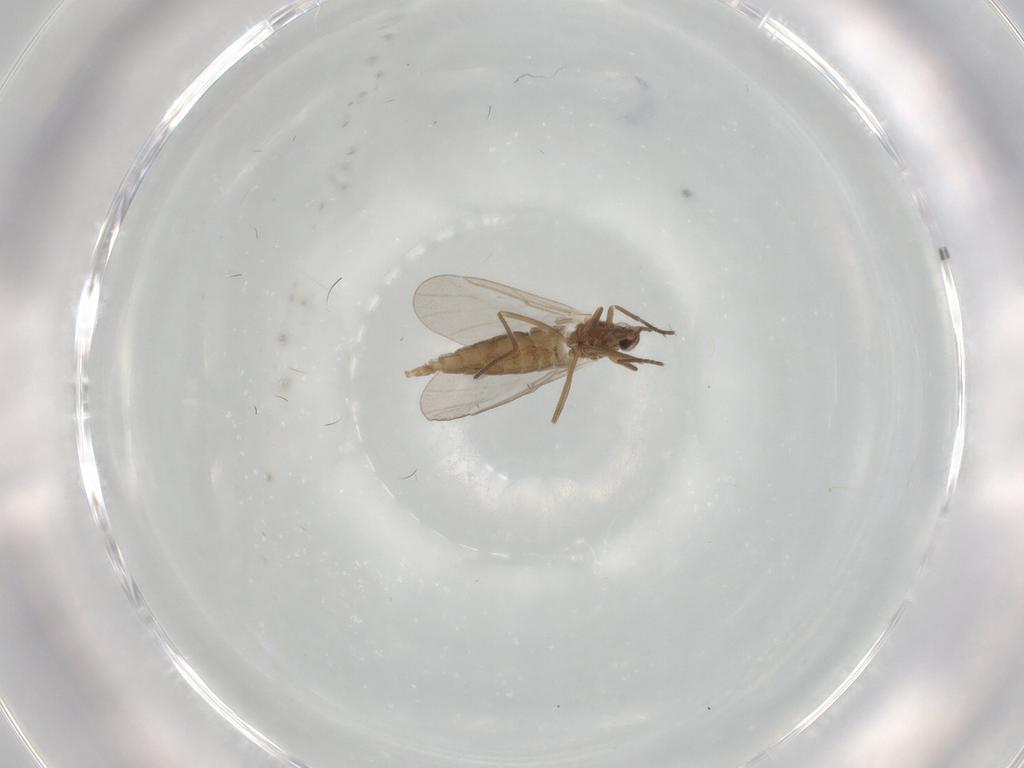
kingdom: Animalia
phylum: Arthropoda
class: Insecta
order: Diptera
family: Cecidomyiidae
